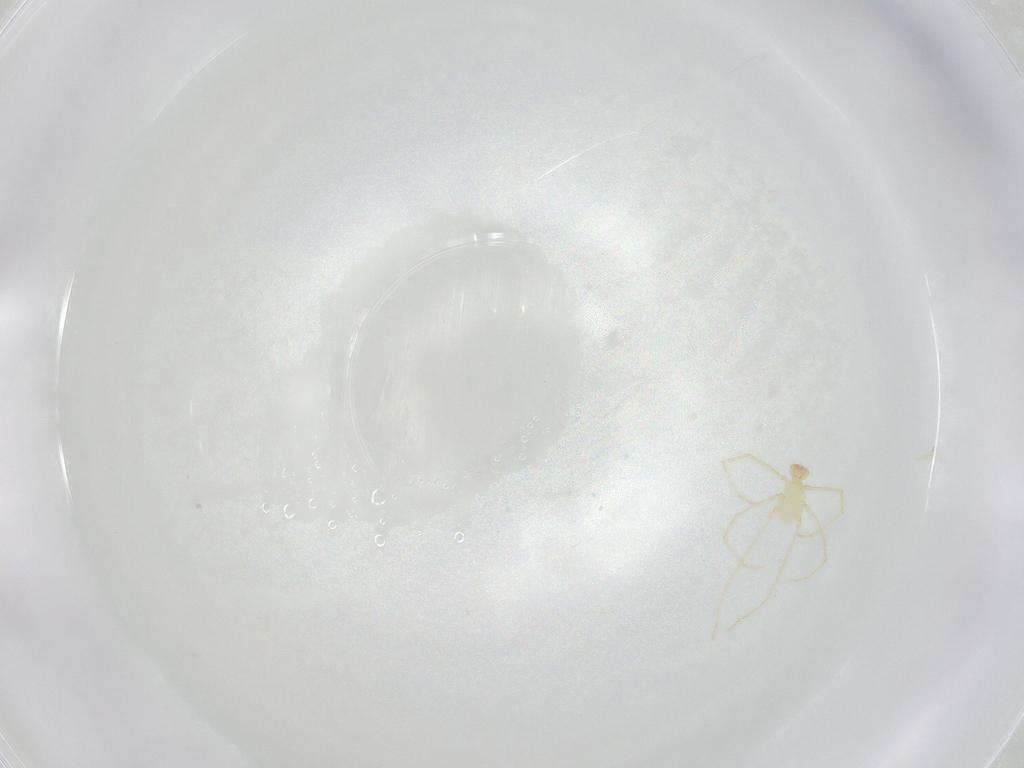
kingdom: Animalia
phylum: Arthropoda
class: Arachnida
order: Trombidiformes
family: Erythraeidae
